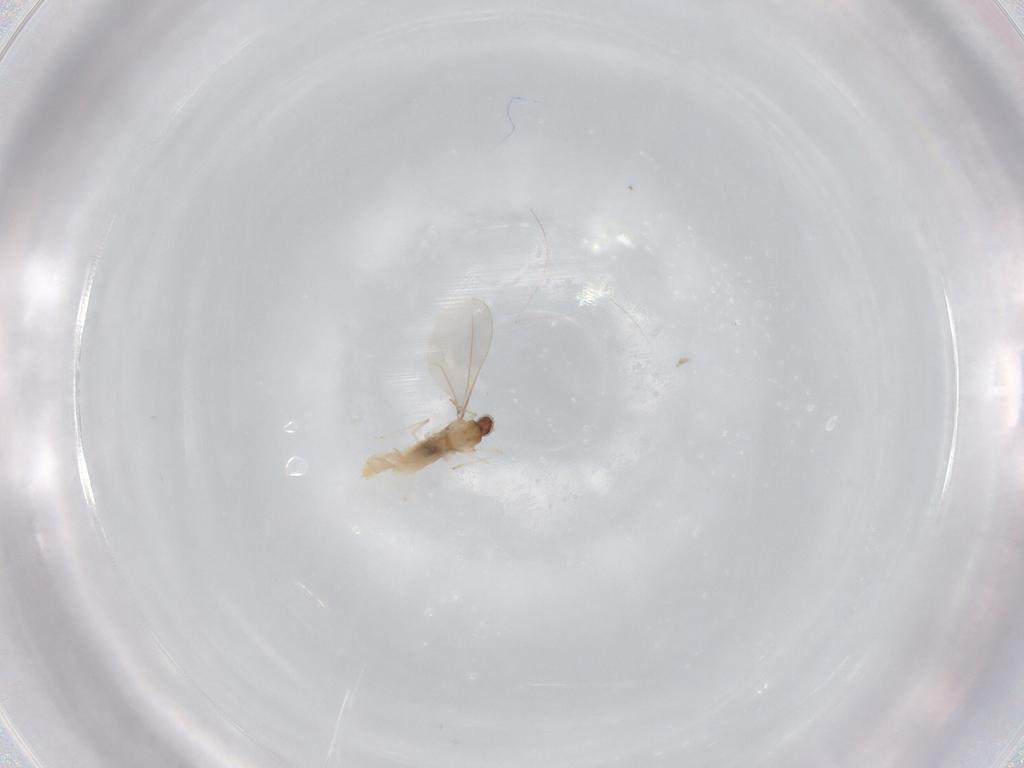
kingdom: Animalia
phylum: Arthropoda
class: Insecta
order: Diptera
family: Cecidomyiidae
